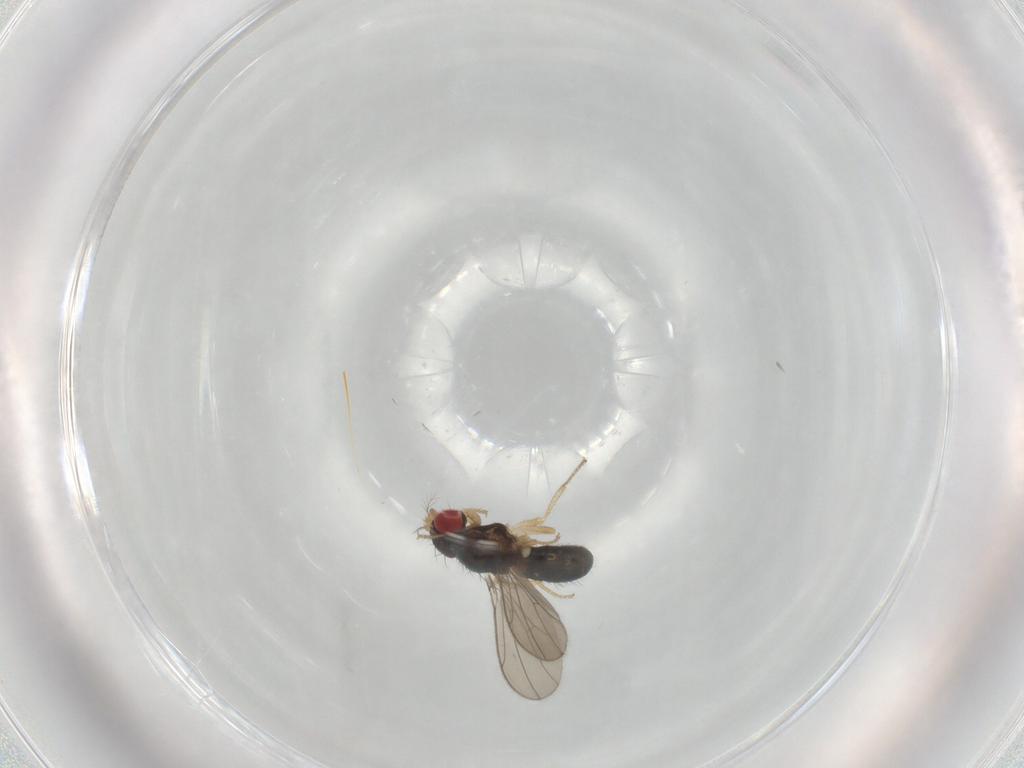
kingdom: Animalia
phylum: Arthropoda
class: Insecta
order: Diptera
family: Drosophilidae
